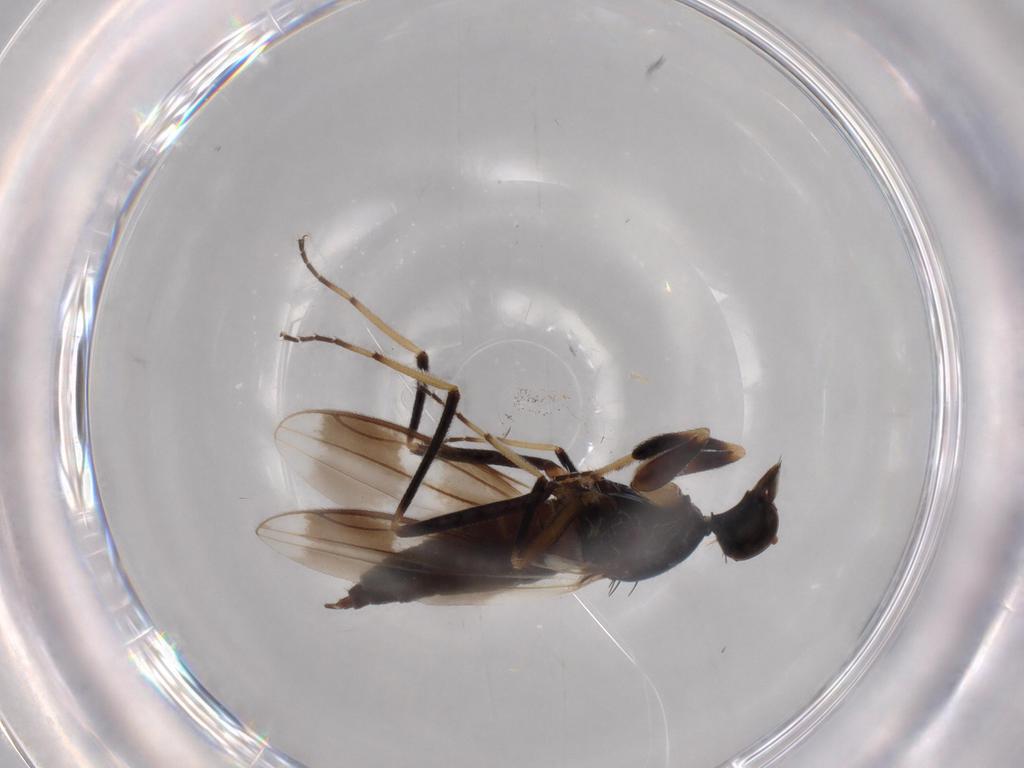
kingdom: Animalia
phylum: Arthropoda
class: Insecta
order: Diptera
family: Hybotidae
